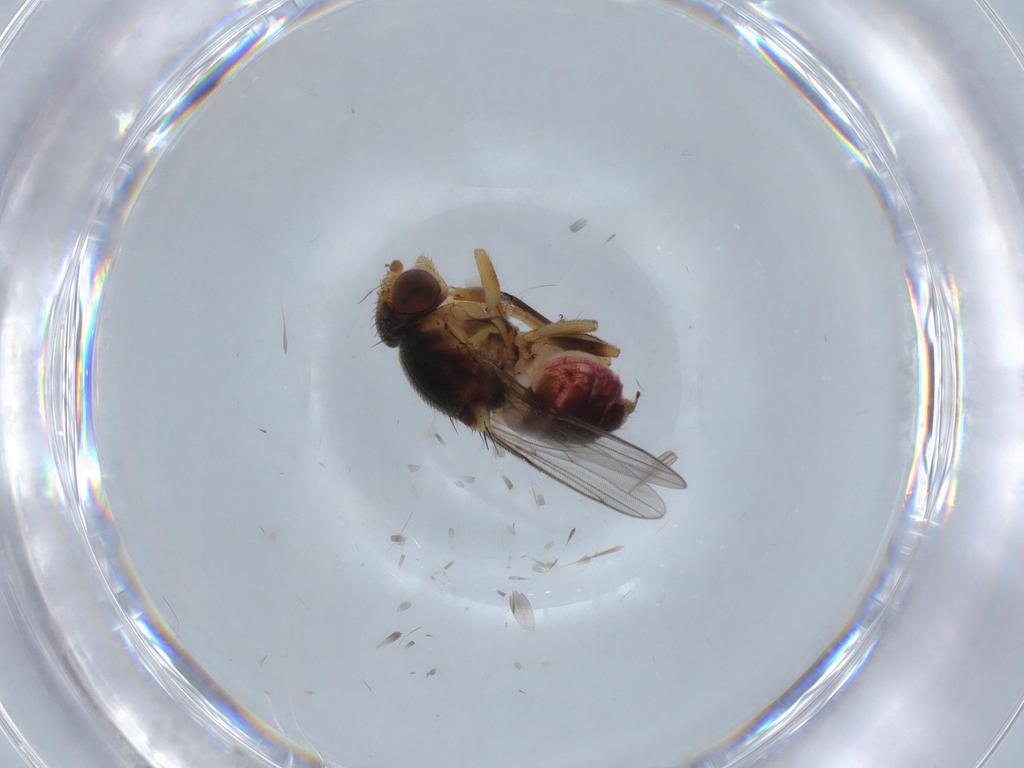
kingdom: Animalia
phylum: Arthropoda
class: Insecta
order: Diptera
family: Chloropidae
